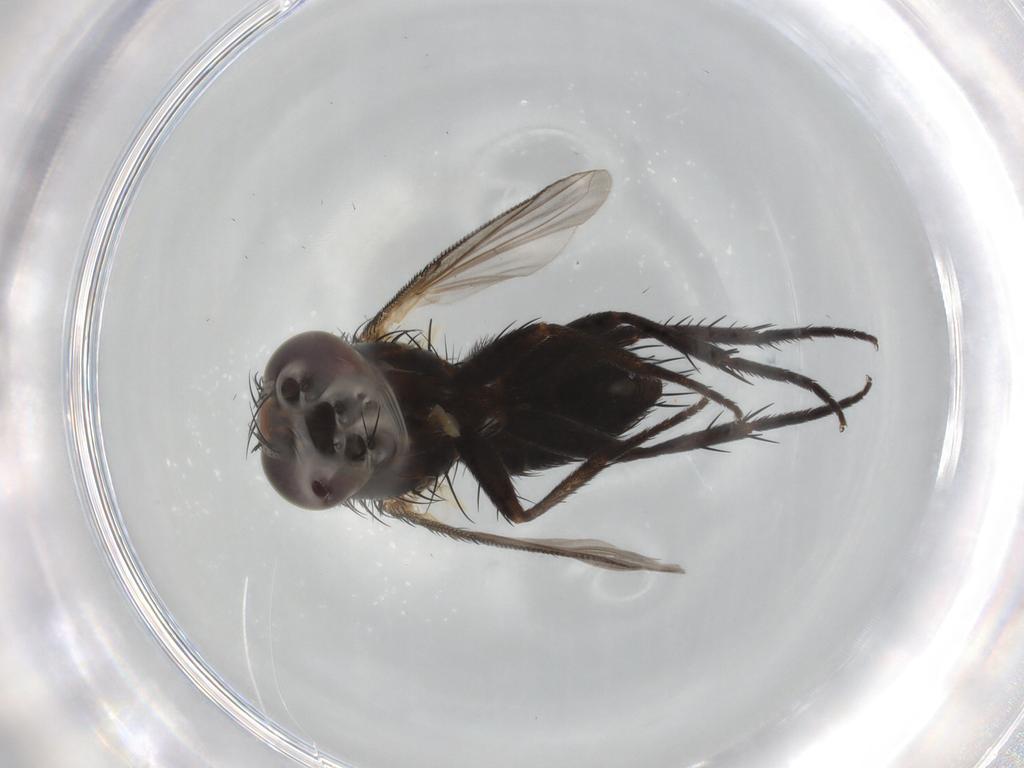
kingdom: Animalia
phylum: Arthropoda
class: Insecta
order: Diptera
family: Tachinidae
